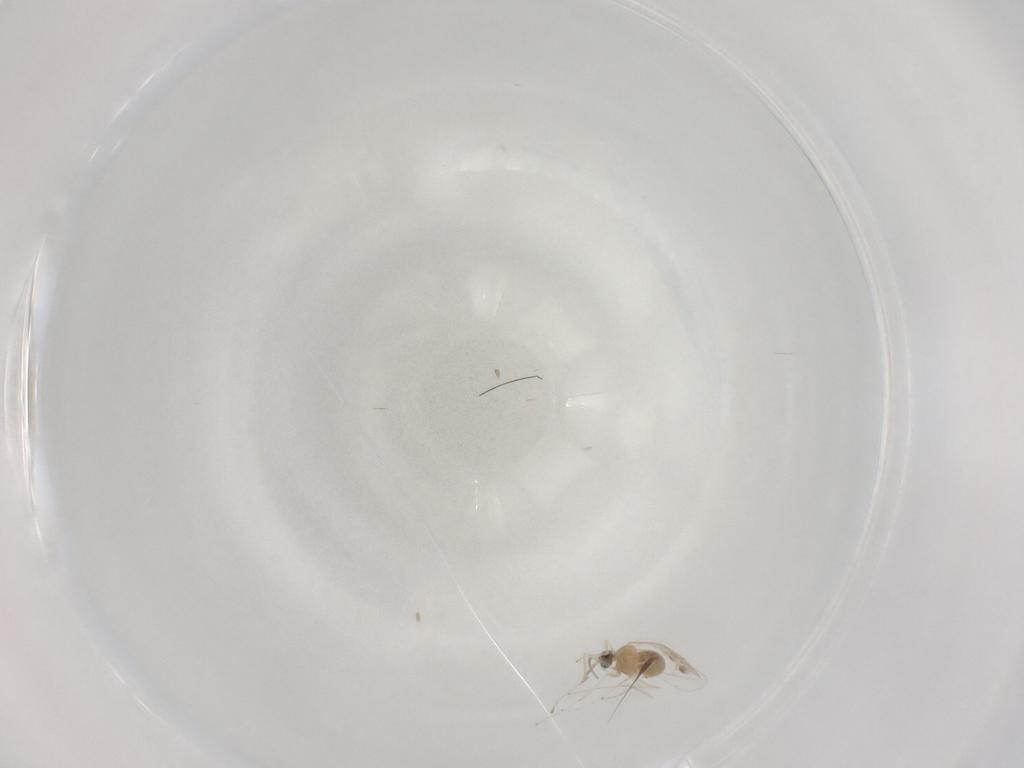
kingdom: Animalia
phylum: Arthropoda
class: Insecta
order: Diptera
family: Cecidomyiidae
